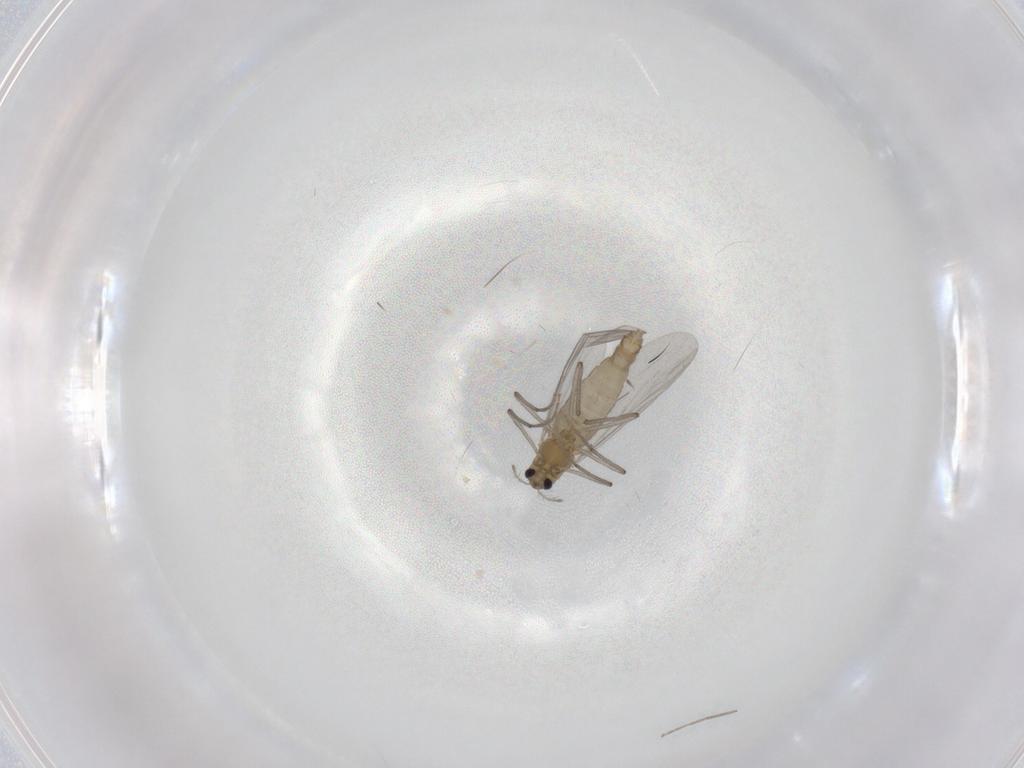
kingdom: Animalia
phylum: Arthropoda
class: Insecta
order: Diptera
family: Chironomidae
